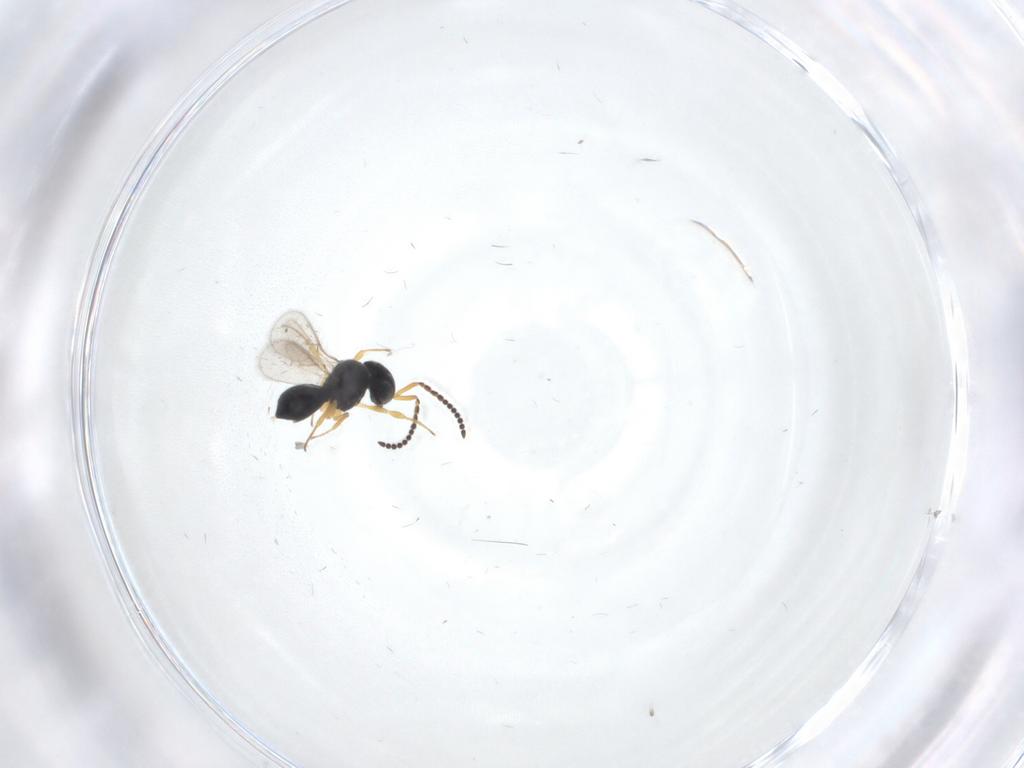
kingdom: Animalia
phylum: Arthropoda
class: Insecta
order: Hymenoptera
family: Scelionidae
